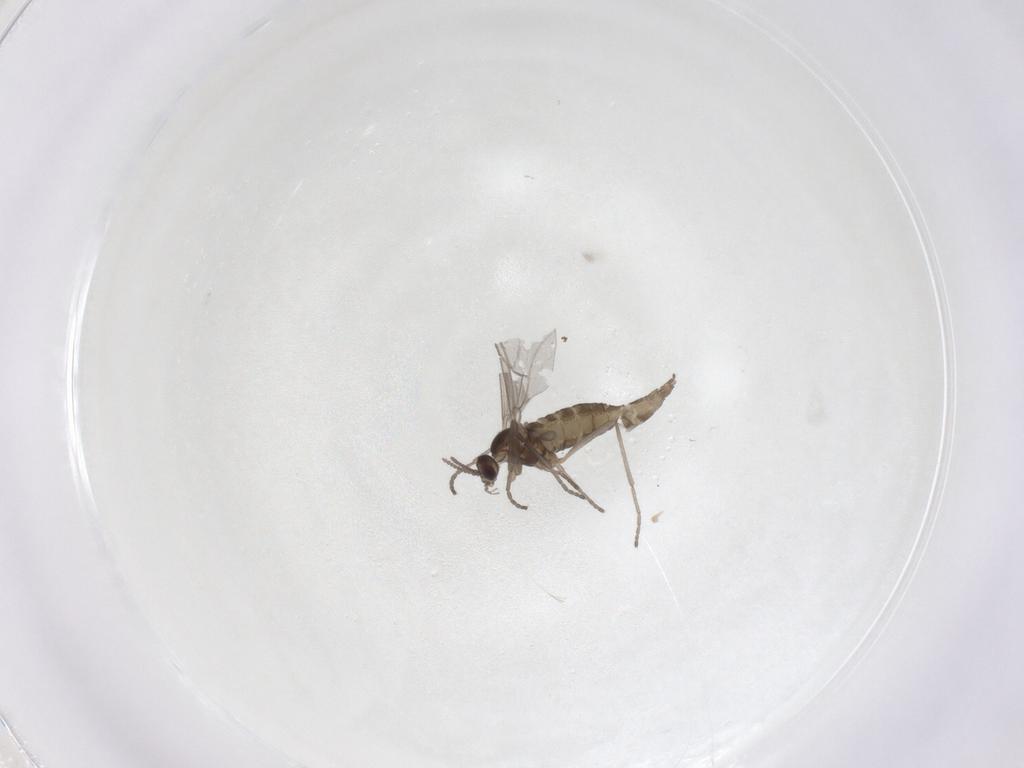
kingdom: Animalia
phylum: Arthropoda
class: Insecta
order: Diptera
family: Cecidomyiidae
